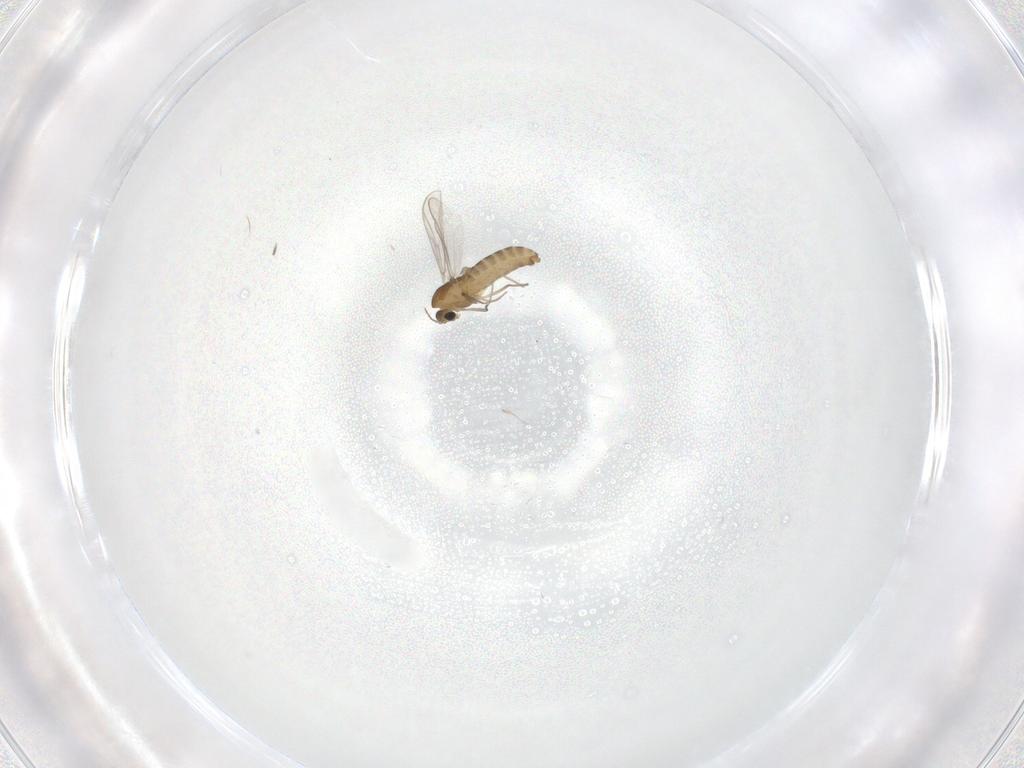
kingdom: Animalia
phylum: Arthropoda
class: Insecta
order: Diptera
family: Chironomidae
